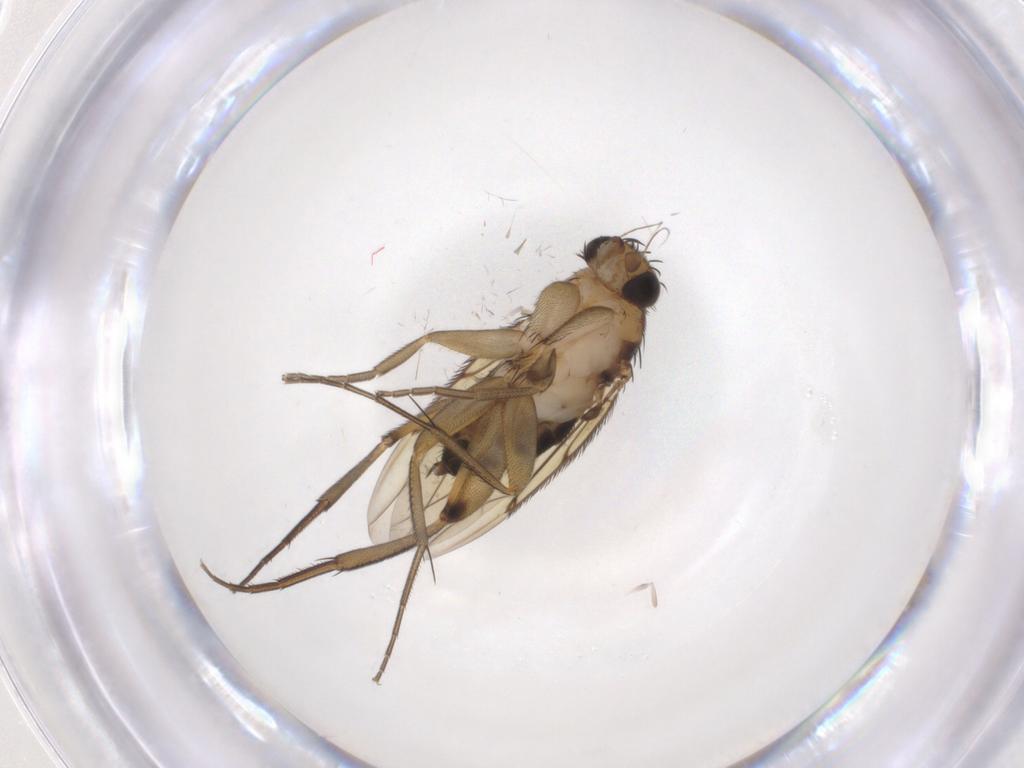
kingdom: Animalia
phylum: Arthropoda
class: Insecta
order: Diptera
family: Phoridae
